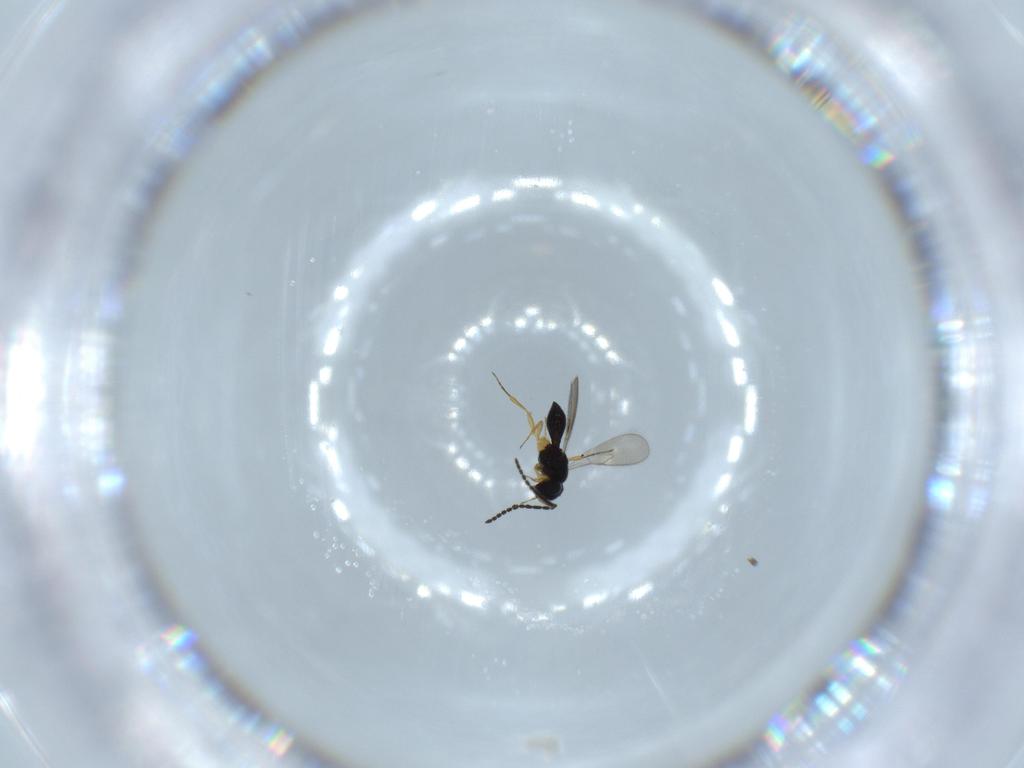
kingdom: Animalia
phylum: Arthropoda
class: Insecta
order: Hymenoptera
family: Scelionidae
